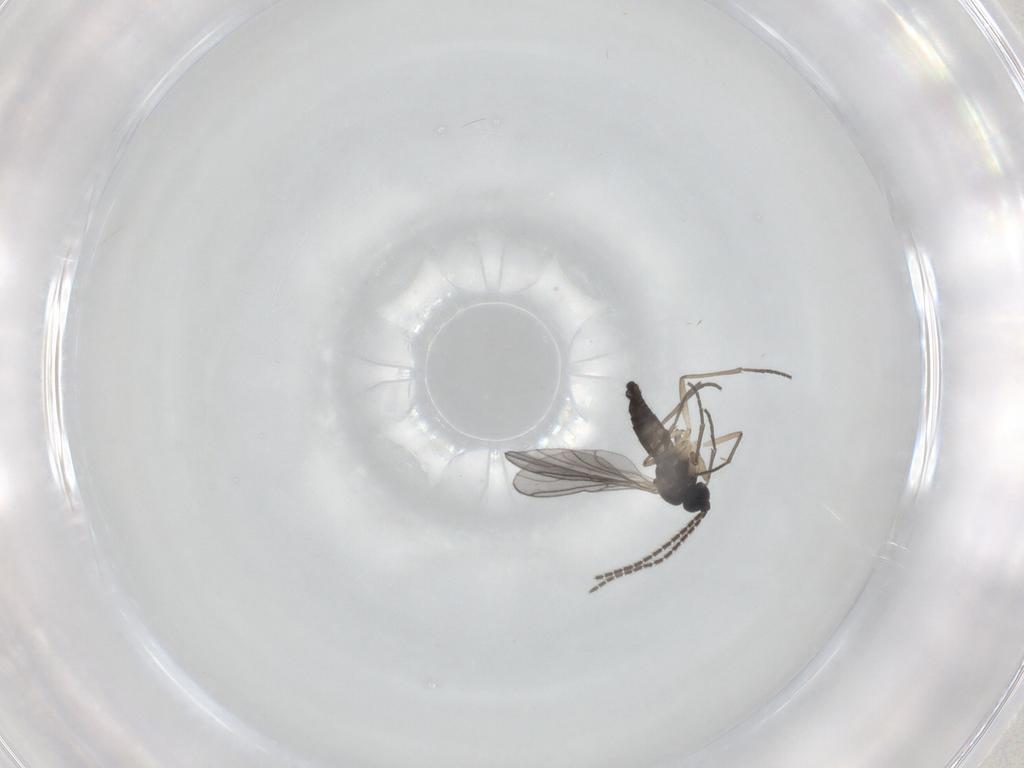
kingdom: Animalia
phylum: Arthropoda
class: Insecta
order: Diptera
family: Sciaridae
